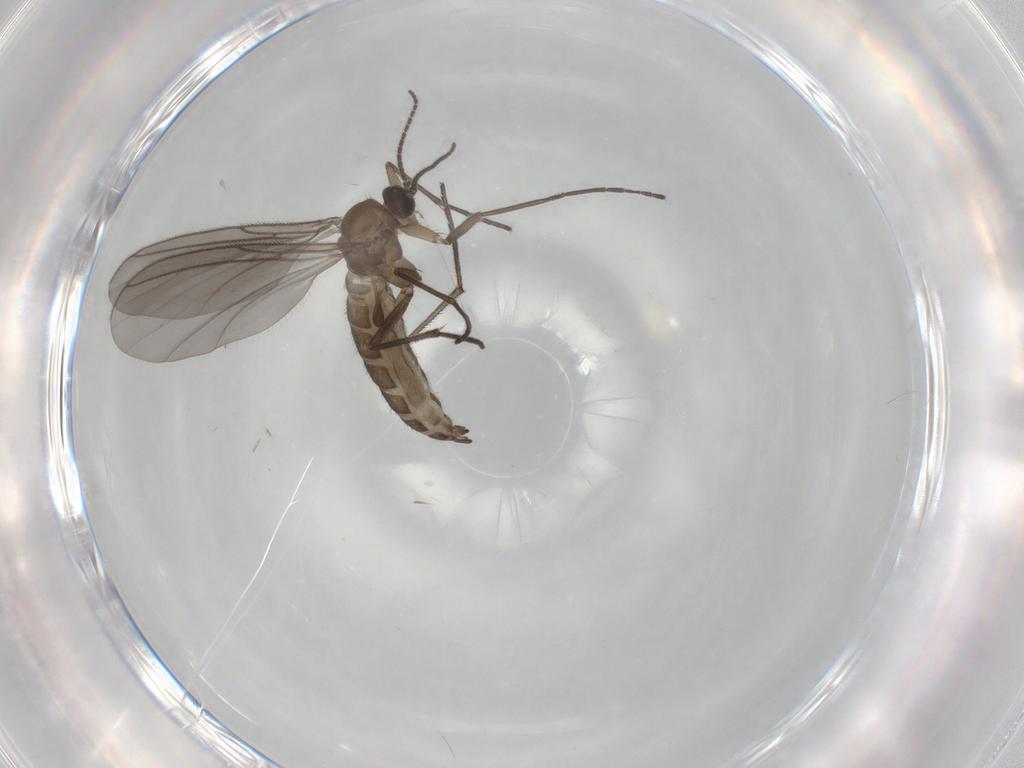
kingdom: Animalia
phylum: Arthropoda
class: Insecta
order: Diptera
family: Sciaridae
